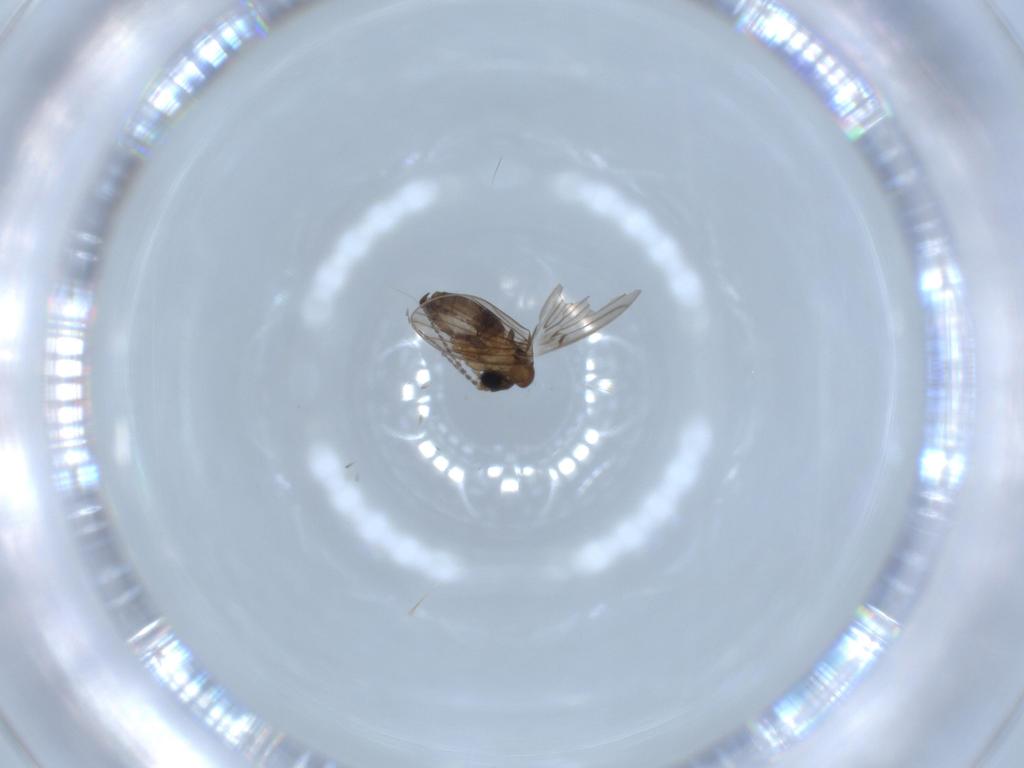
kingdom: Animalia
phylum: Arthropoda
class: Insecta
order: Diptera
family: Psychodidae
